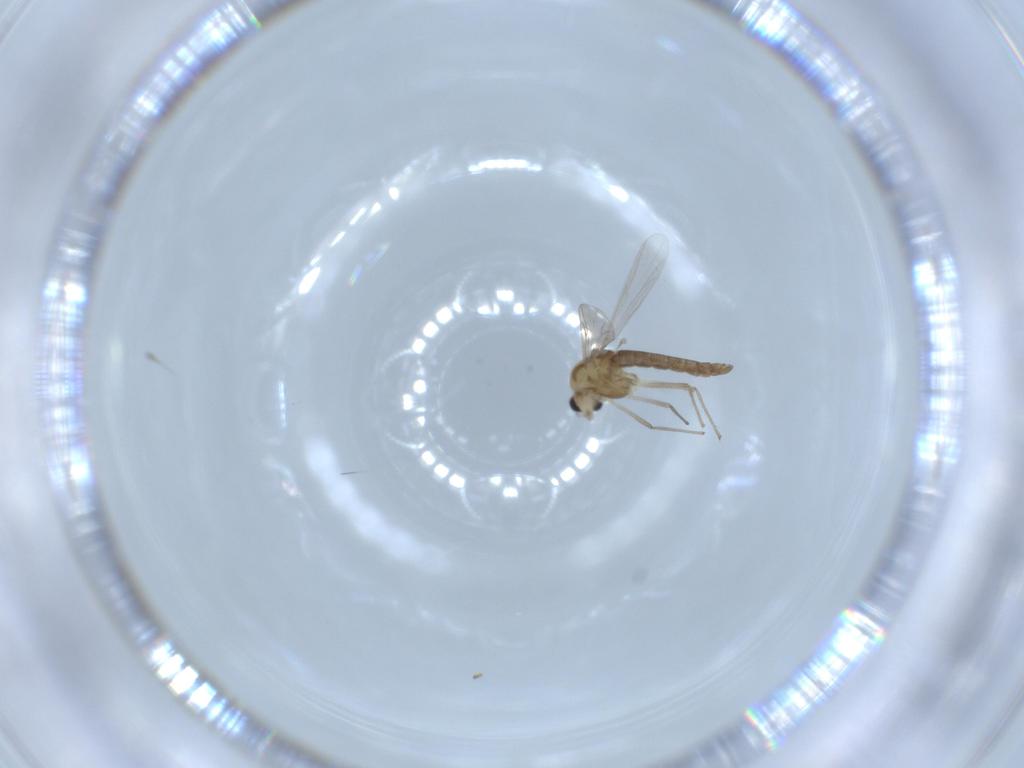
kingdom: Animalia
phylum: Arthropoda
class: Insecta
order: Diptera
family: Chironomidae
